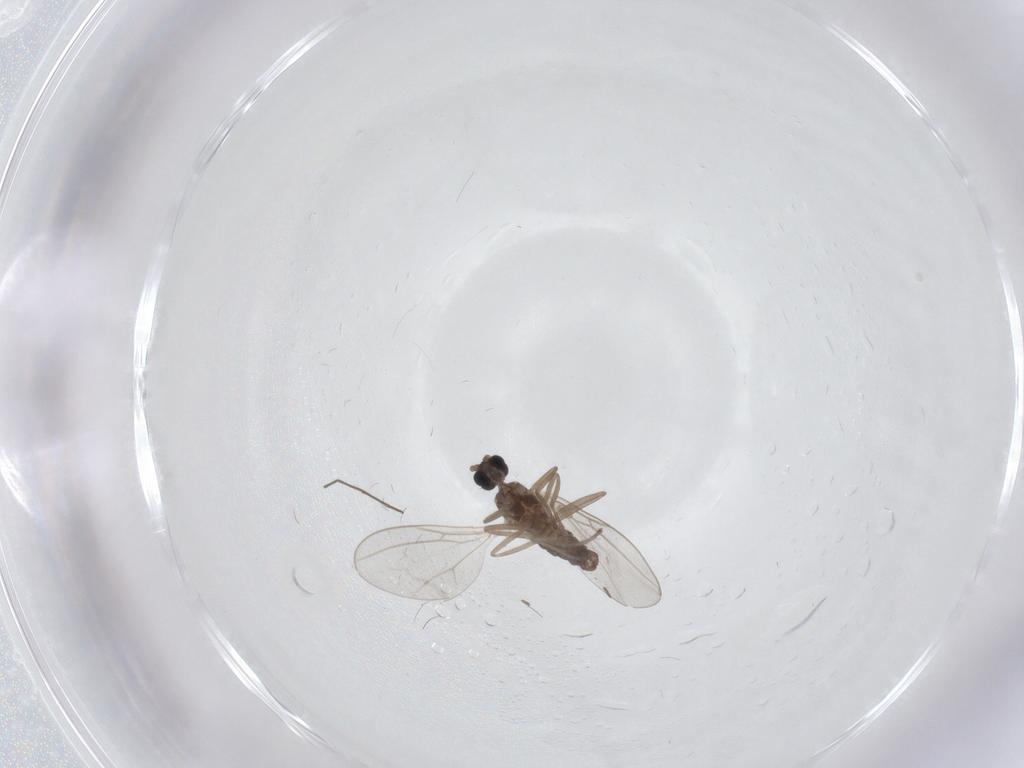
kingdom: Animalia
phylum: Arthropoda
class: Insecta
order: Diptera
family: Cecidomyiidae
